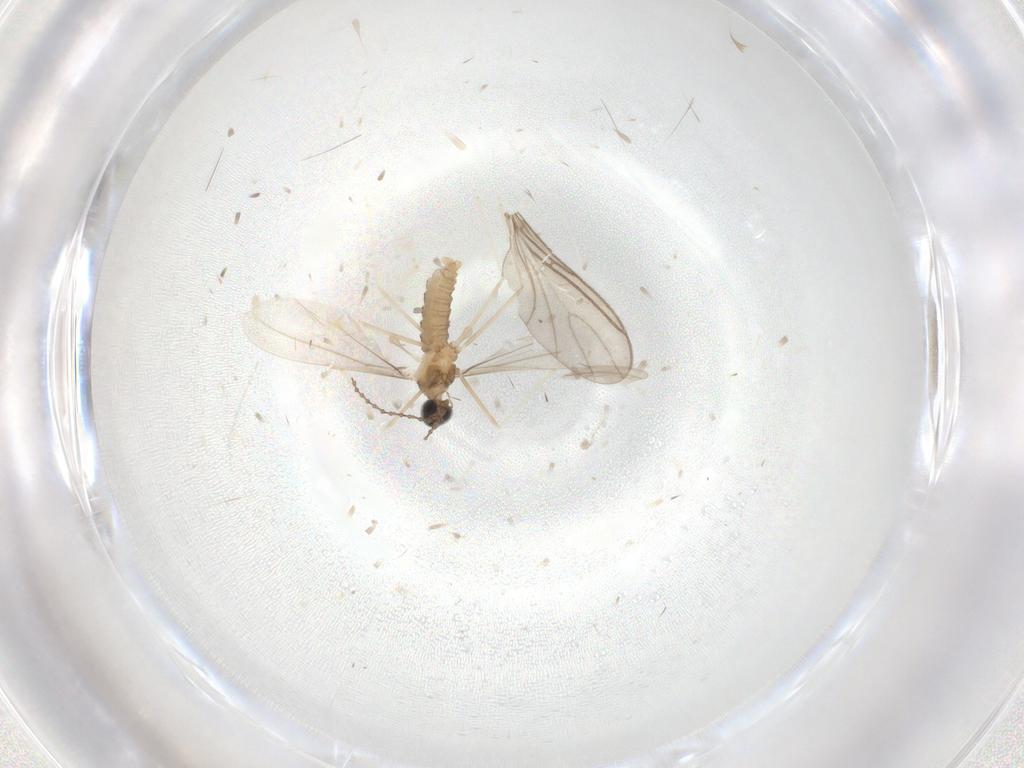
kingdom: Animalia
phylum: Arthropoda
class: Insecta
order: Diptera
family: Cecidomyiidae
